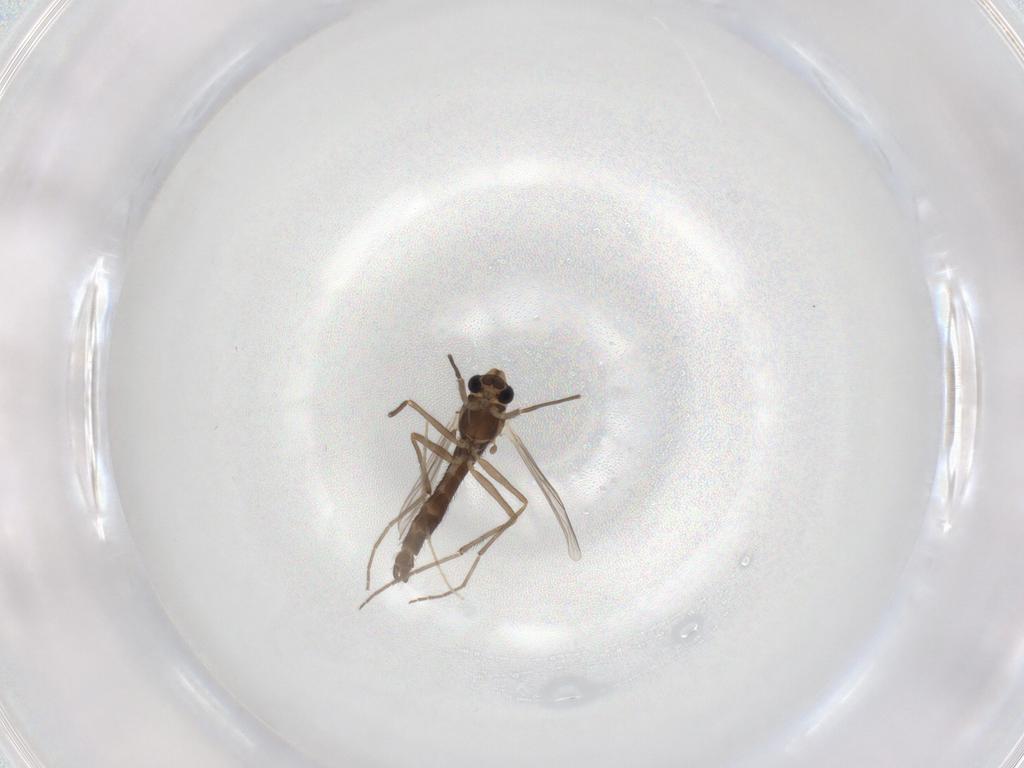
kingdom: Animalia
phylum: Arthropoda
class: Insecta
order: Diptera
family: Chironomidae
